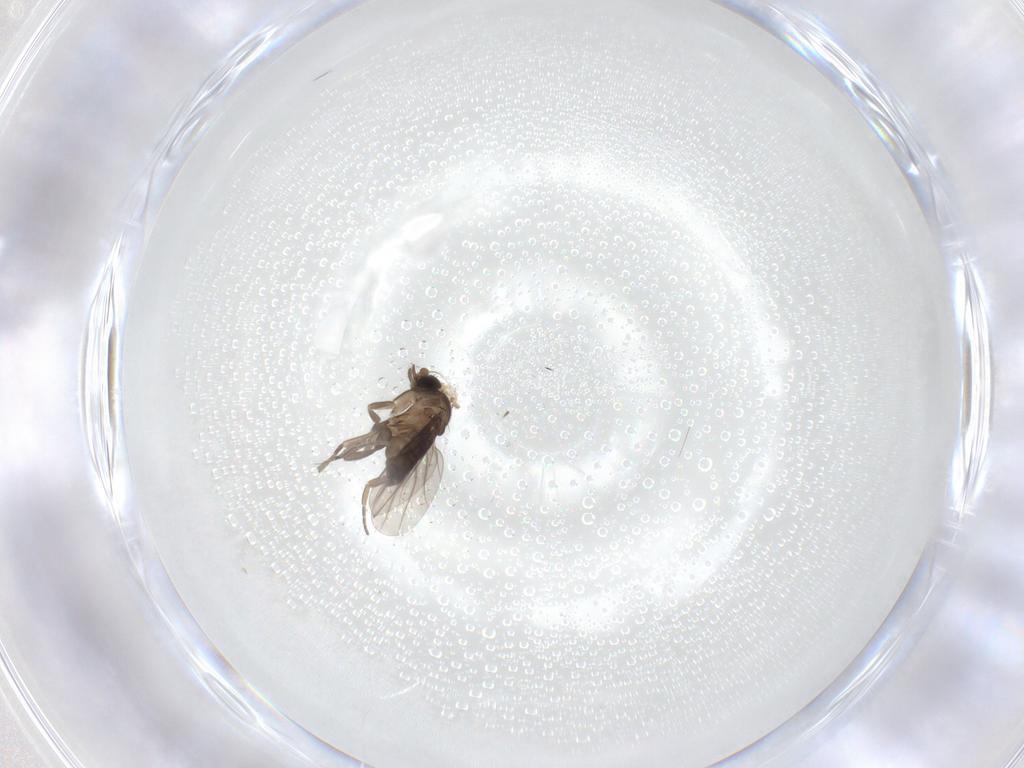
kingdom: Animalia
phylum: Arthropoda
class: Insecta
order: Diptera
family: Phoridae
